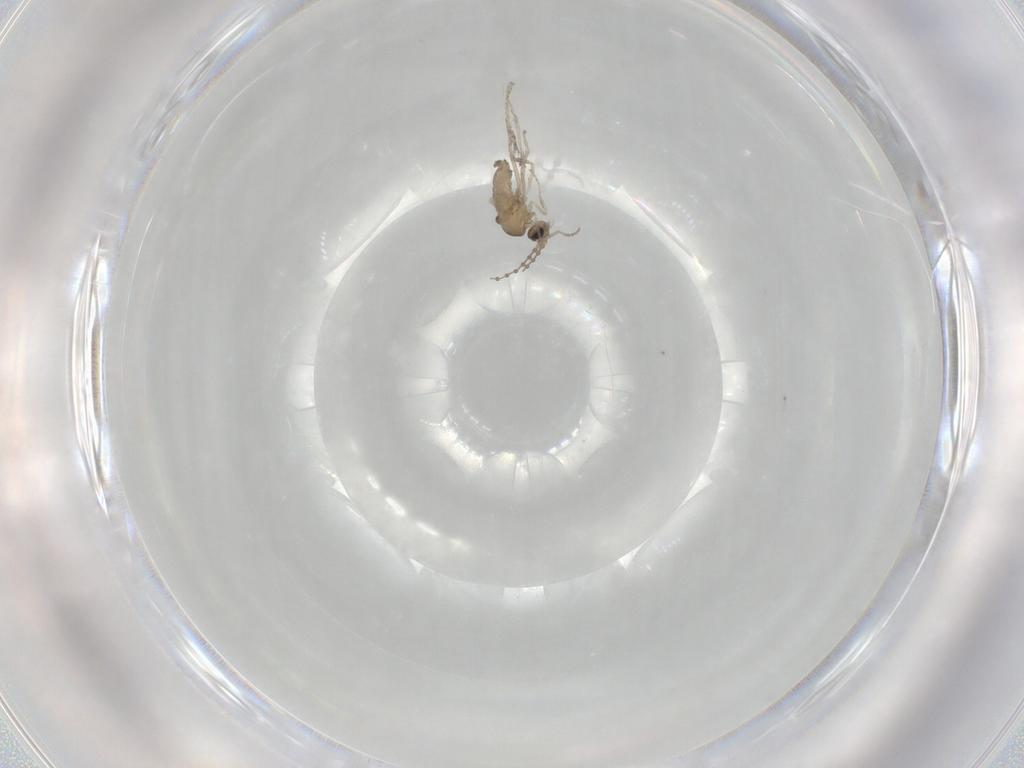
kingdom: Animalia
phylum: Arthropoda
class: Insecta
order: Diptera
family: Cecidomyiidae
